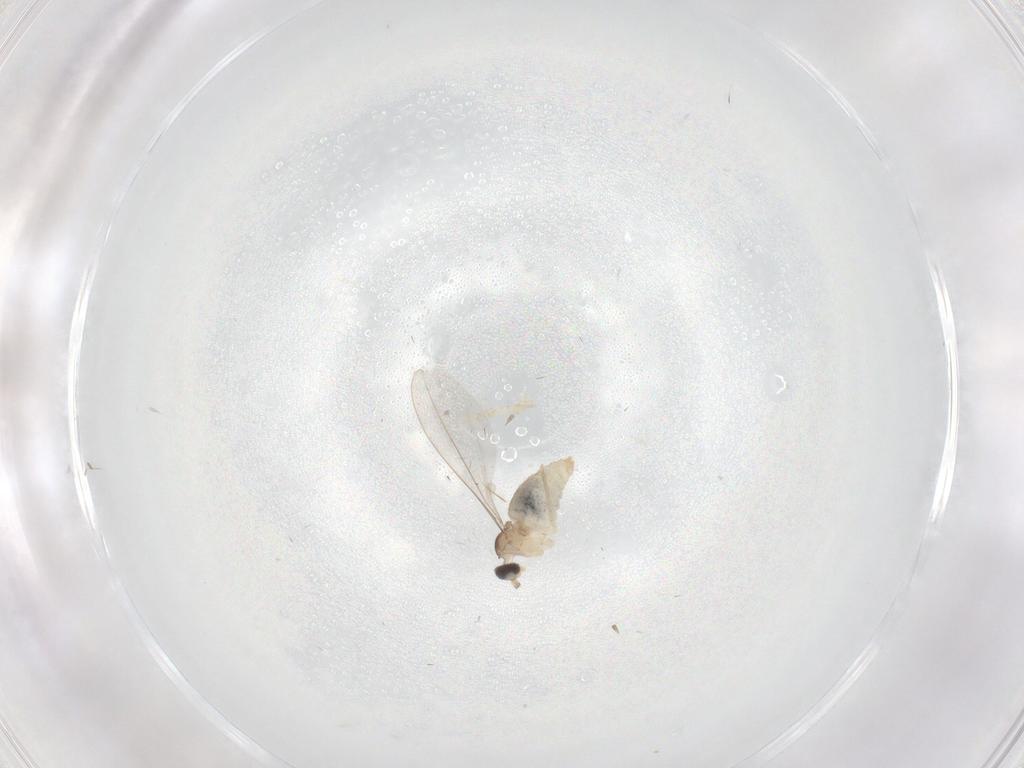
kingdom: Animalia
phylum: Arthropoda
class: Insecta
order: Diptera
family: Cecidomyiidae
